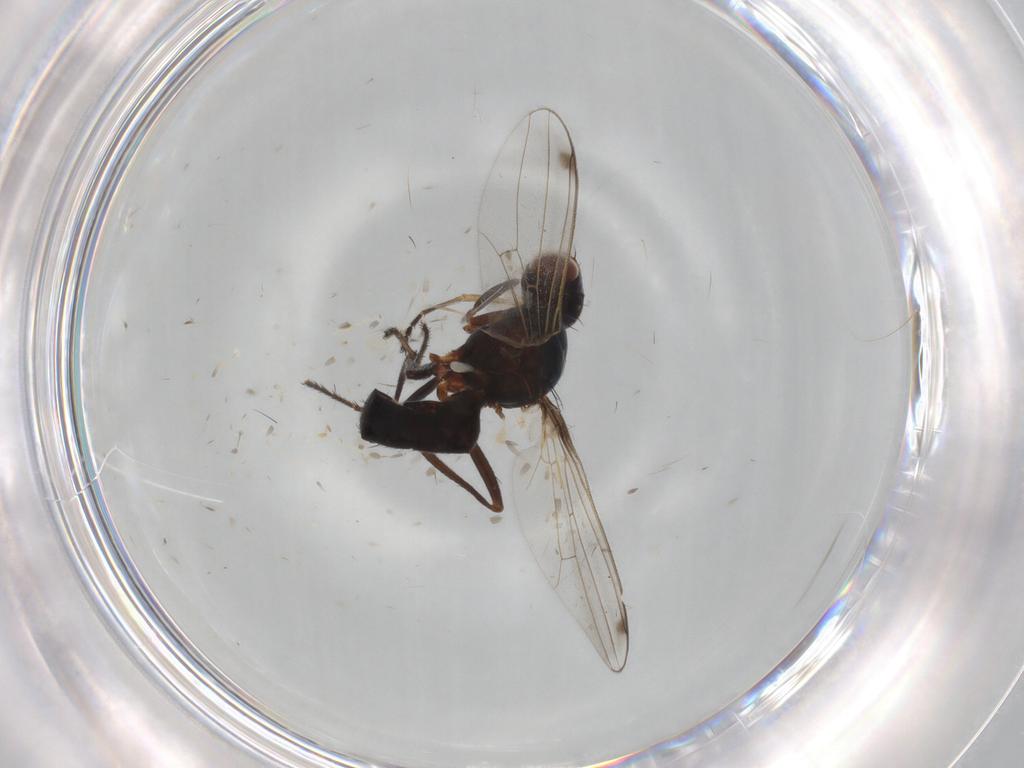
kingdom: Animalia
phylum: Arthropoda
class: Insecta
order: Diptera
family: Sepsidae
